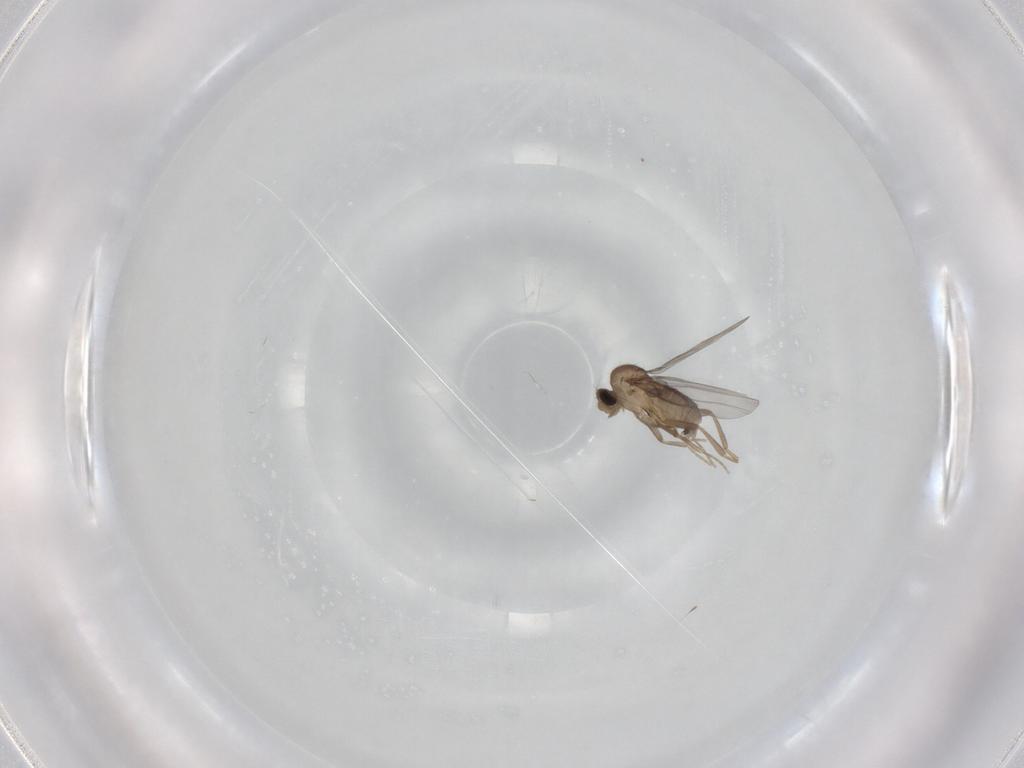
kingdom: Animalia
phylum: Arthropoda
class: Insecta
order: Diptera
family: Chironomidae
